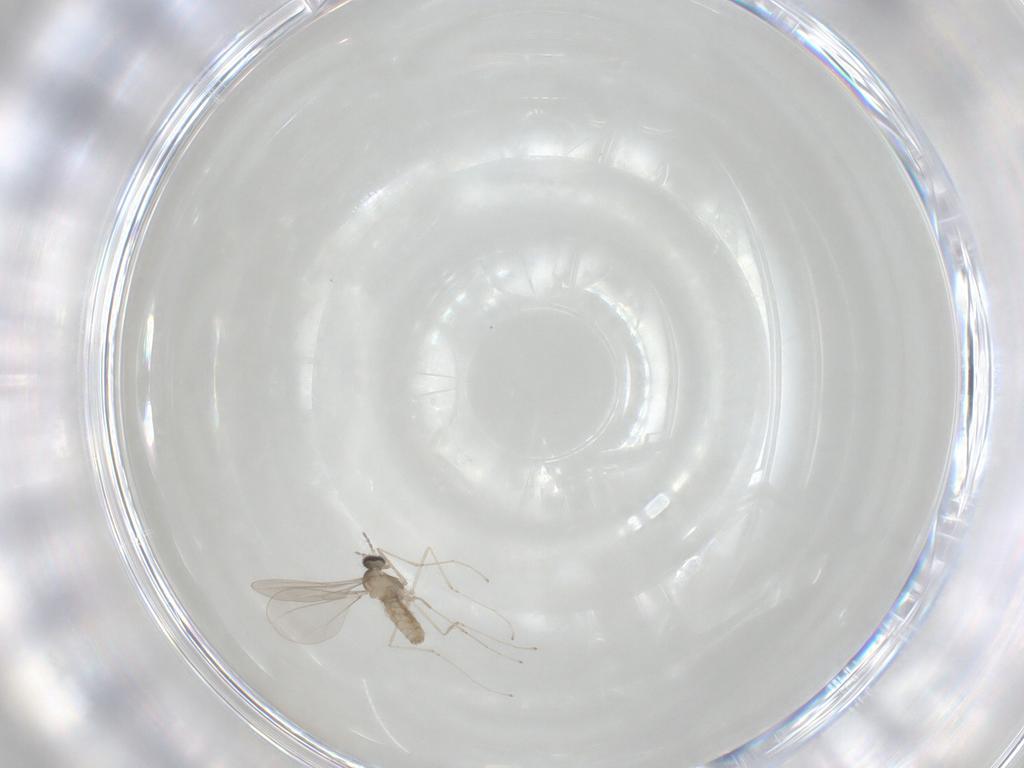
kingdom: Animalia
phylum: Arthropoda
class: Insecta
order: Diptera
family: Cecidomyiidae
